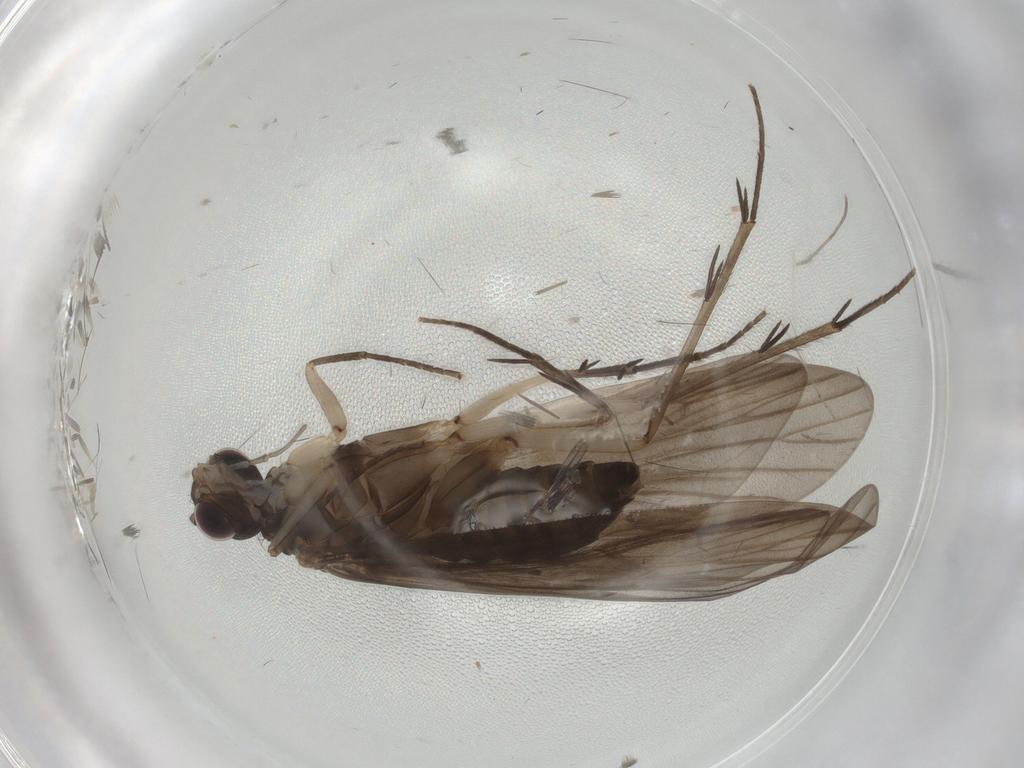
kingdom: Animalia
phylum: Arthropoda
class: Insecta
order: Trichoptera
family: Philopotamidae
